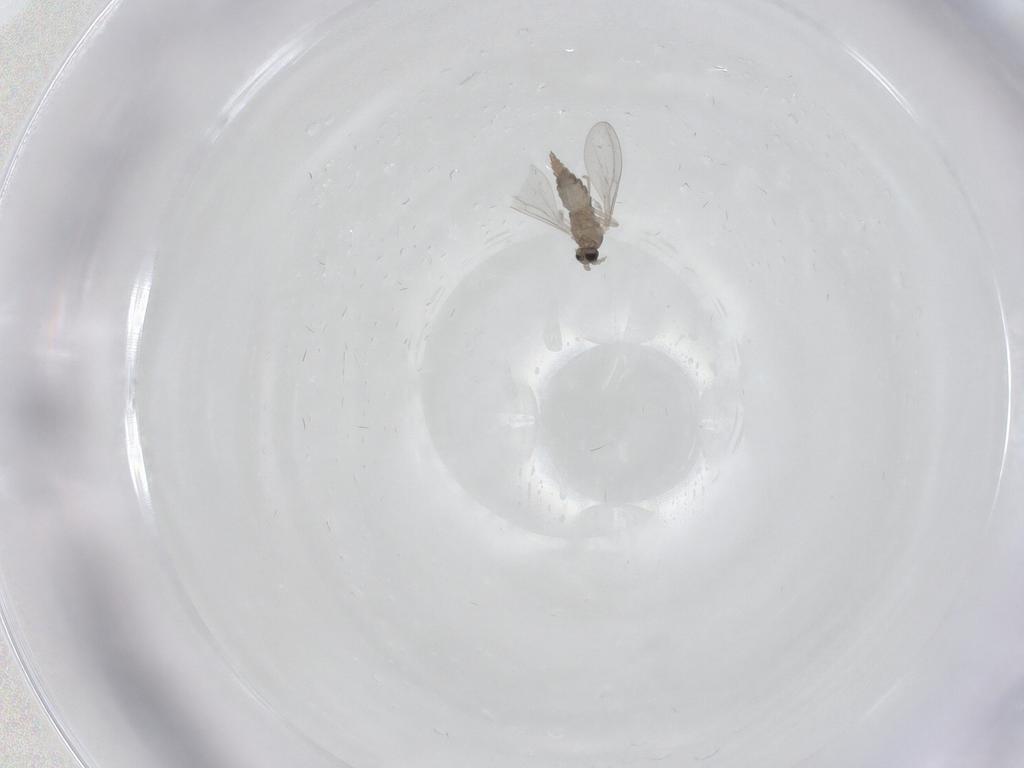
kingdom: Animalia
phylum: Arthropoda
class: Insecta
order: Diptera
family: Cecidomyiidae
